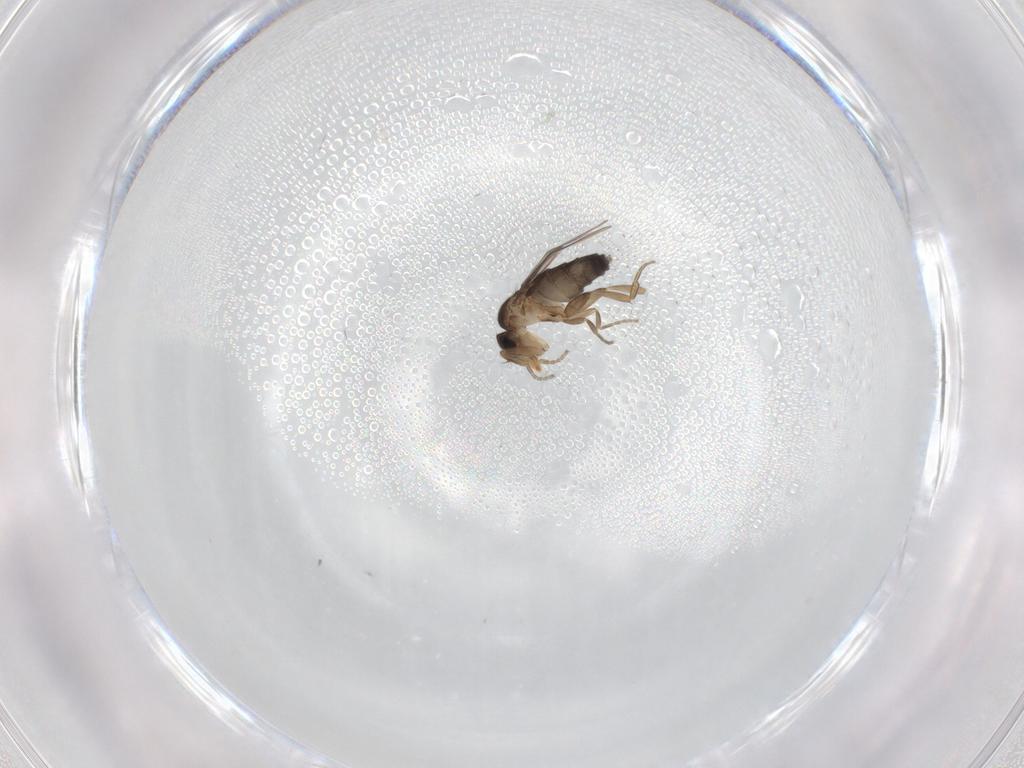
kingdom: Animalia
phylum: Arthropoda
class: Insecta
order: Diptera
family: Phoridae
